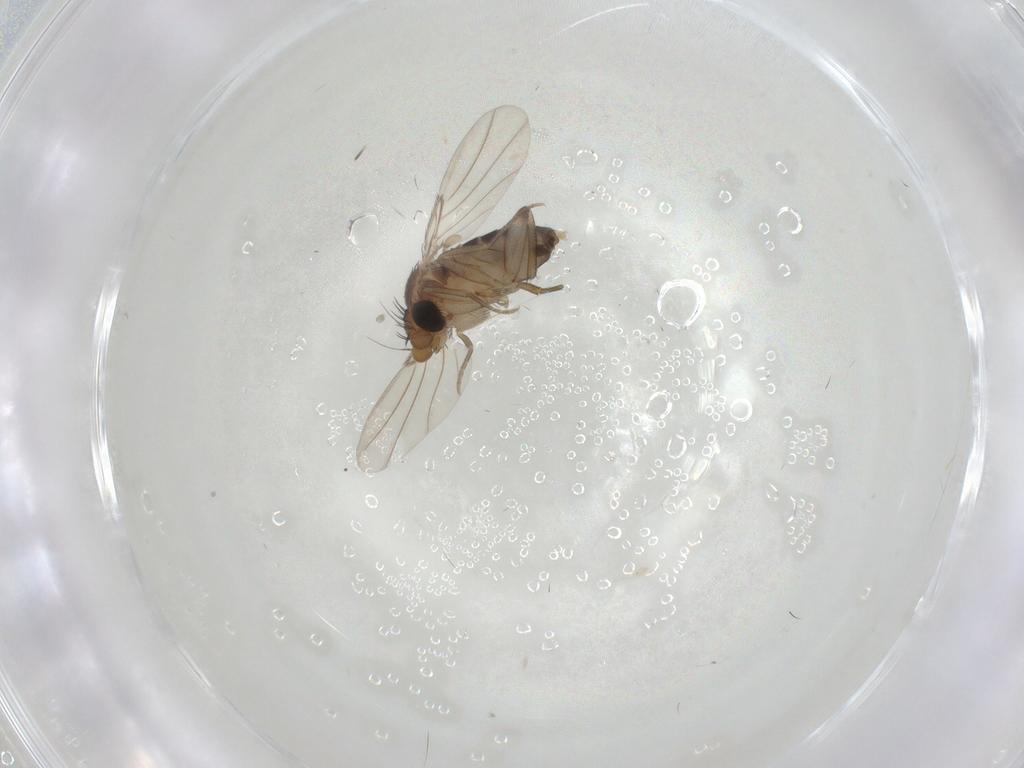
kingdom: Animalia
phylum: Arthropoda
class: Insecta
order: Diptera
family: Phoridae
